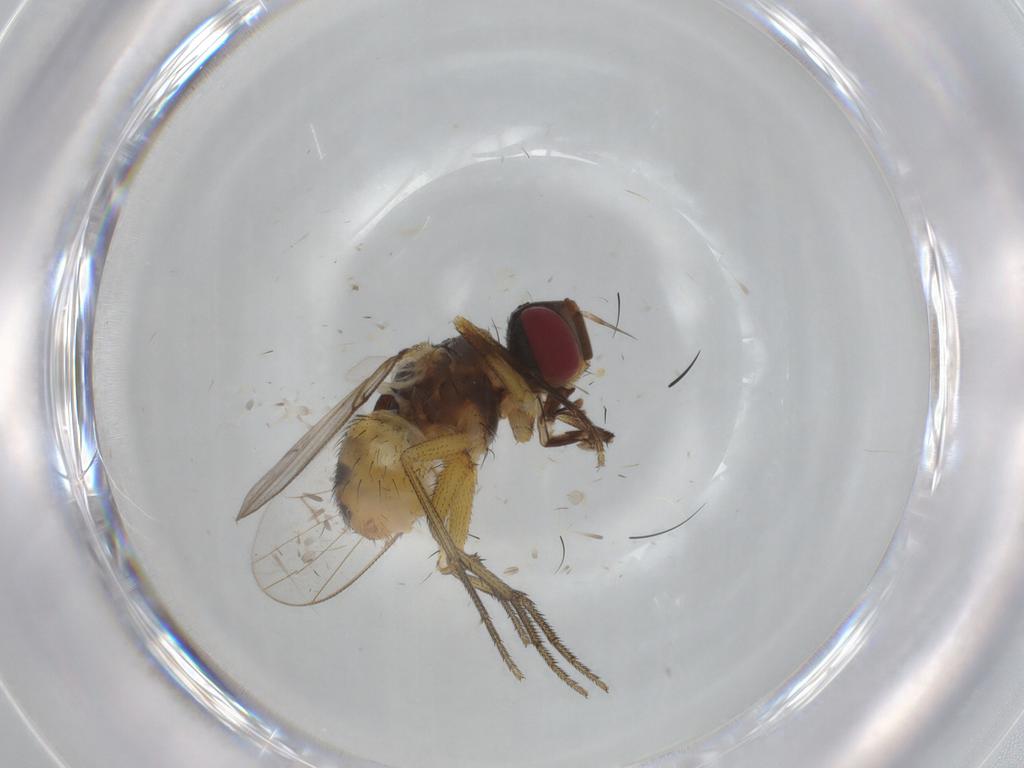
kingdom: Animalia
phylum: Arthropoda
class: Insecta
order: Diptera
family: Muscidae
